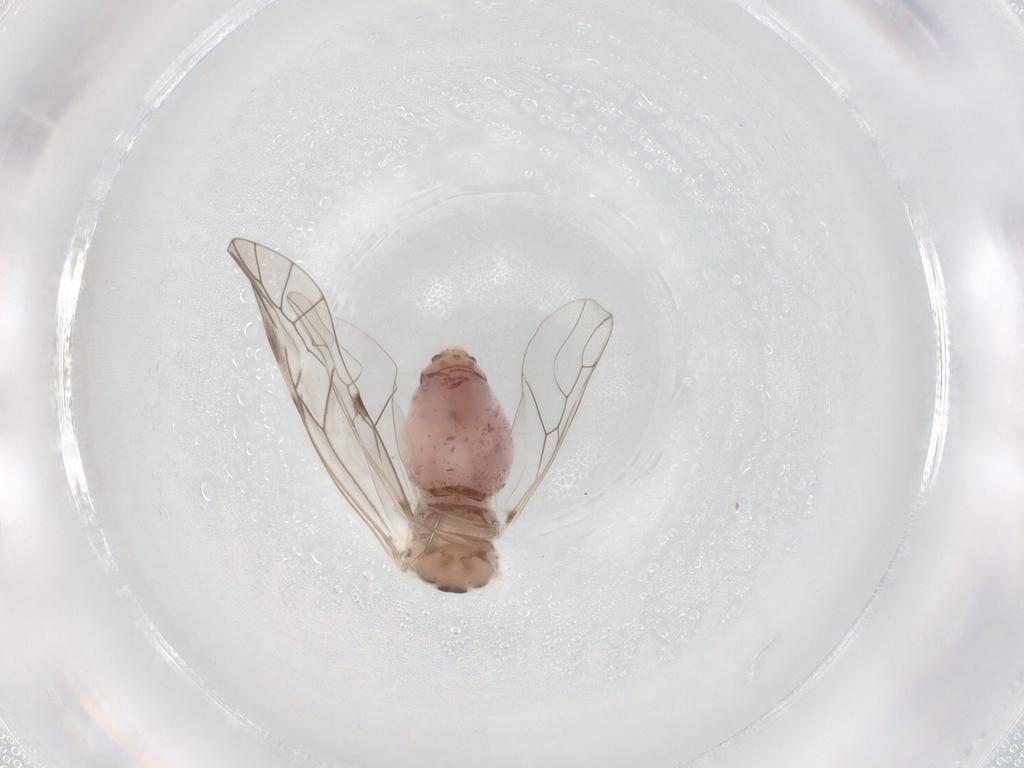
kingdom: Animalia
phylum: Arthropoda
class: Insecta
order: Psocodea
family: Psocidae
